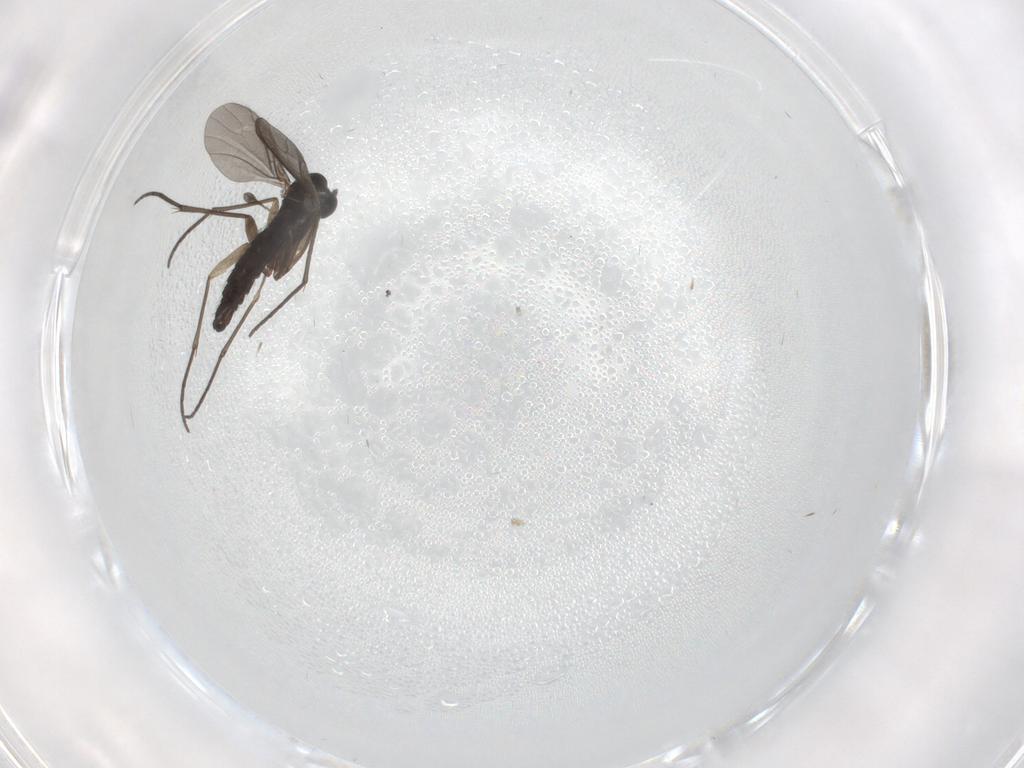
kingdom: Animalia
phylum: Arthropoda
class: Insecta
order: Diptera
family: Sciaridae
